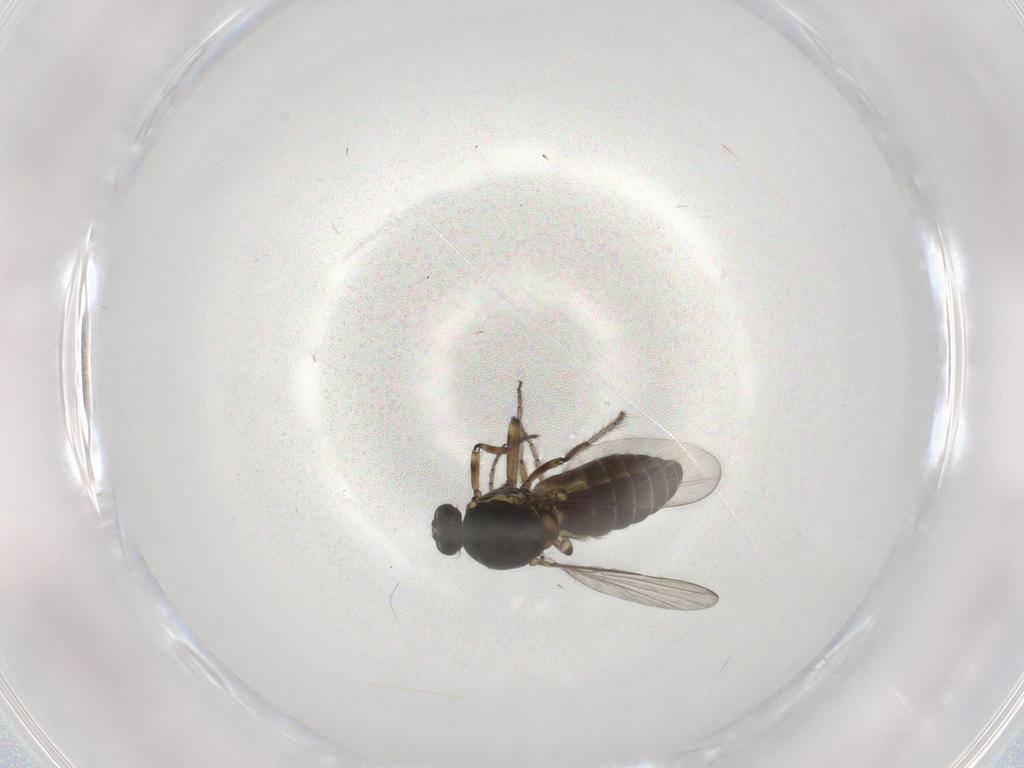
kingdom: Animalia
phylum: Arthropoda
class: Insecta
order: Diptera
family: Ceratopogonidae
